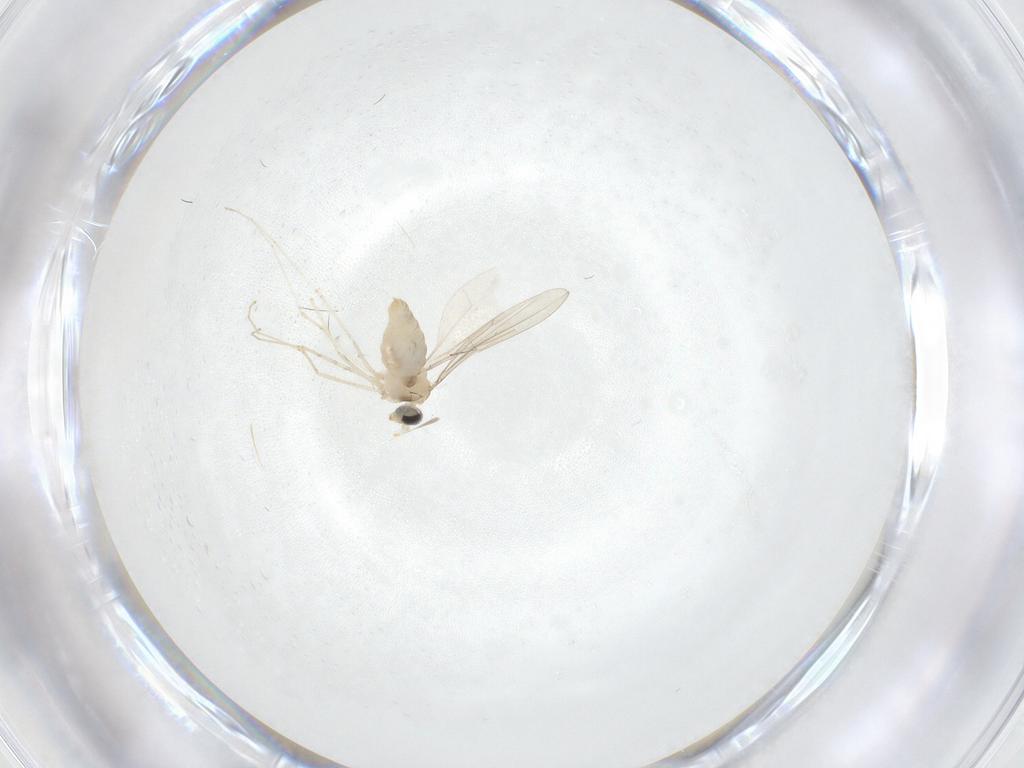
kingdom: Animalia
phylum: Arthropoda
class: Insecta
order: Diptera
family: Cecidomyiidae
